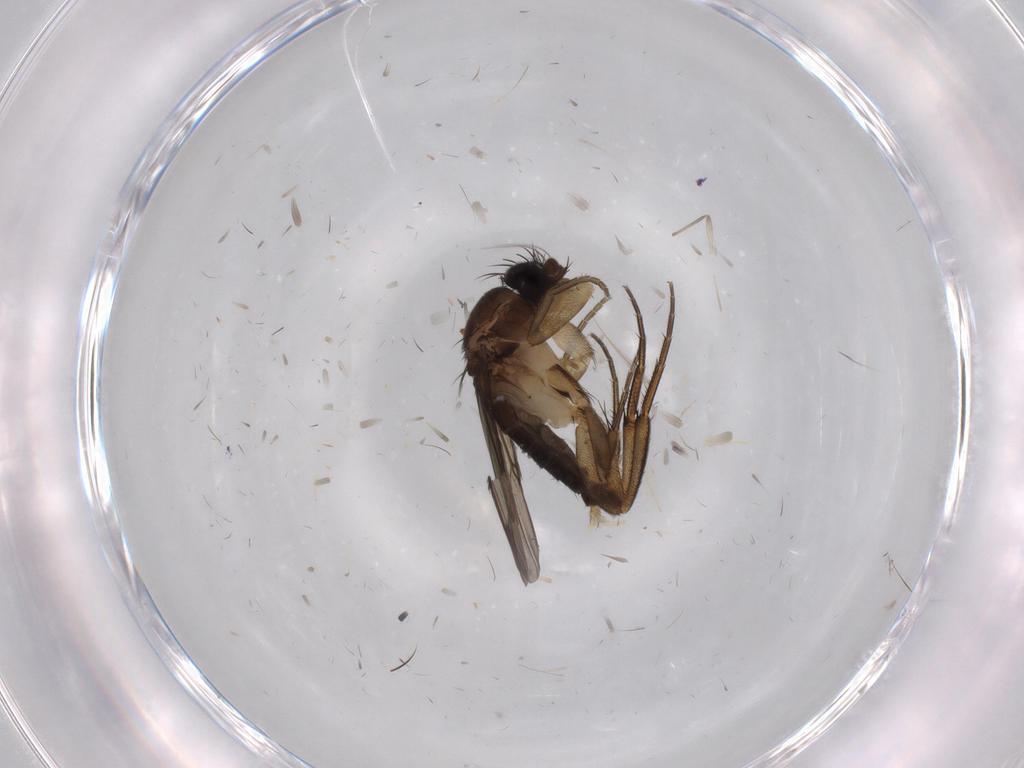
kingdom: Animalia
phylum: Arthropoda
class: Insecta
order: Diptera
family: Phoridae
